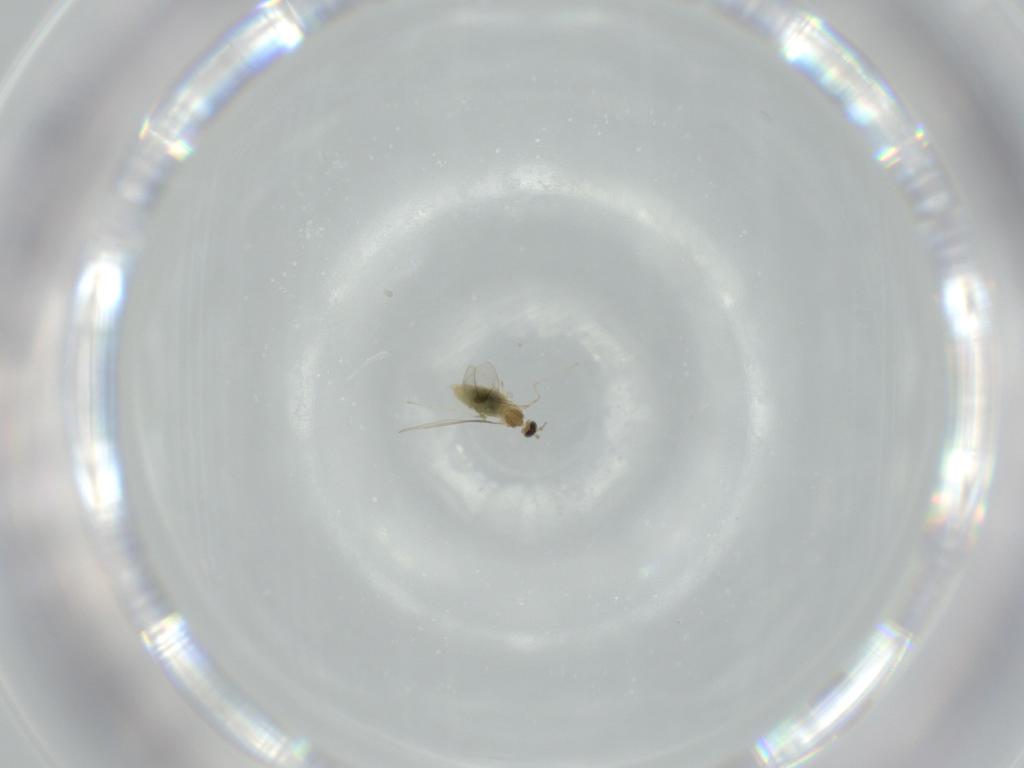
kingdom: Animalia
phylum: Arthropoda
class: Insecta
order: Diptera
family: Cecidomyiidae
